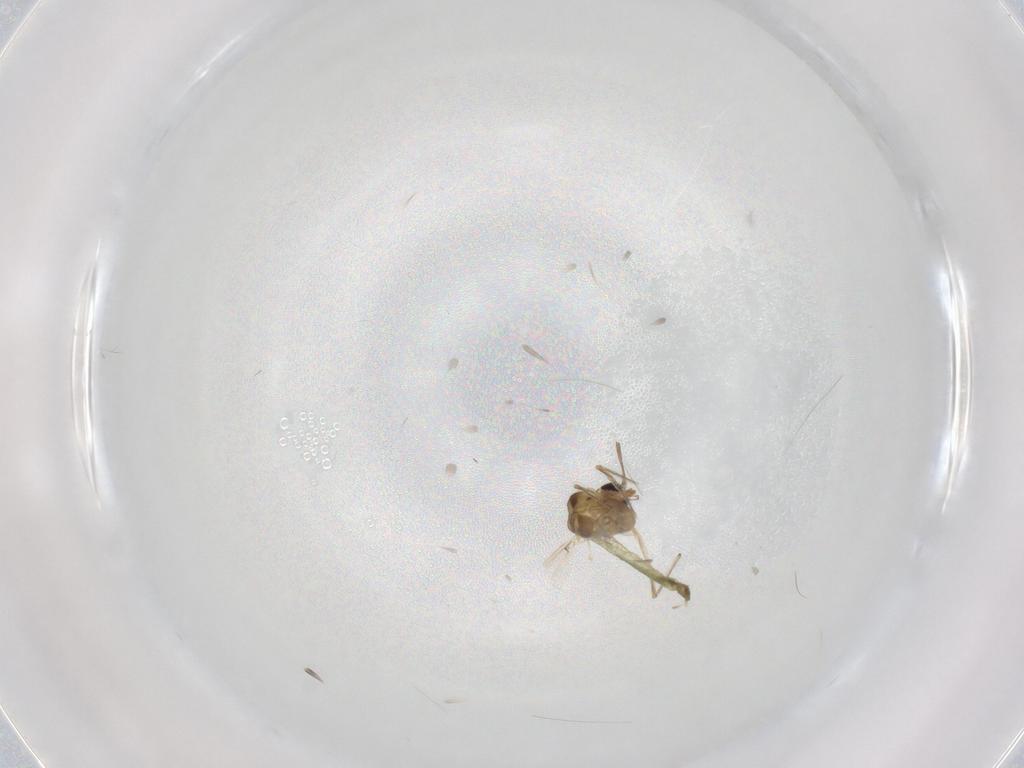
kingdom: Animalia
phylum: Arthropoda
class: Insecta
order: Diptera
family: Chironomidae
